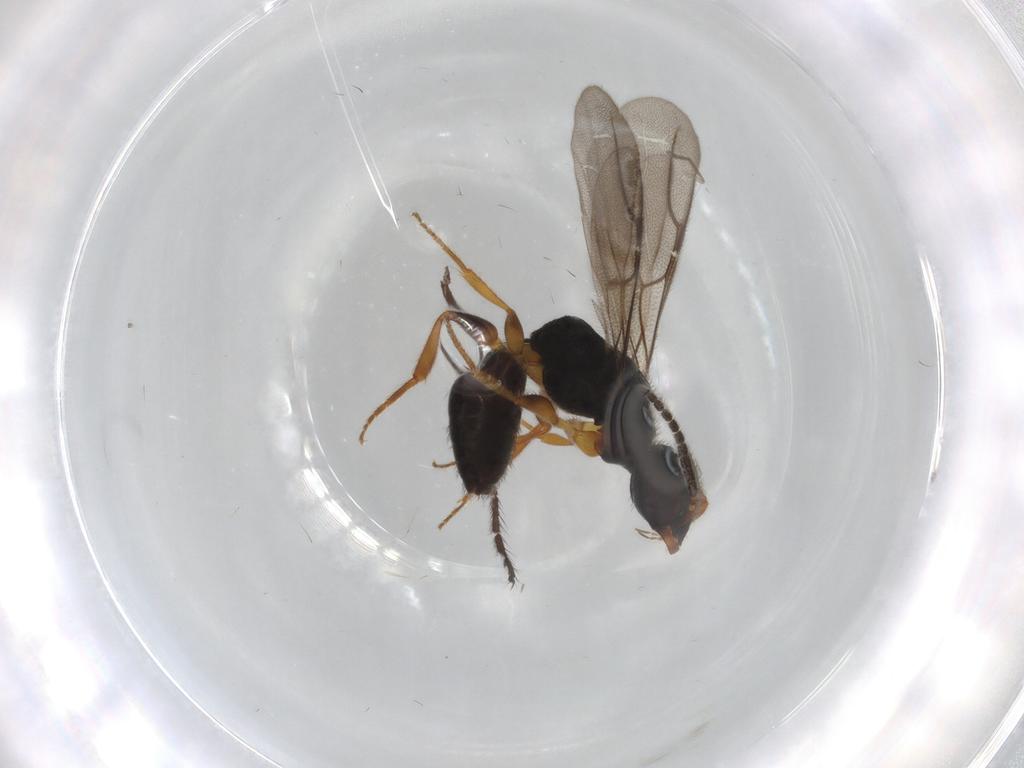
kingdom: Animalia
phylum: Arthropoda
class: Insecta
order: Hymenoptera
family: Bethylidae
